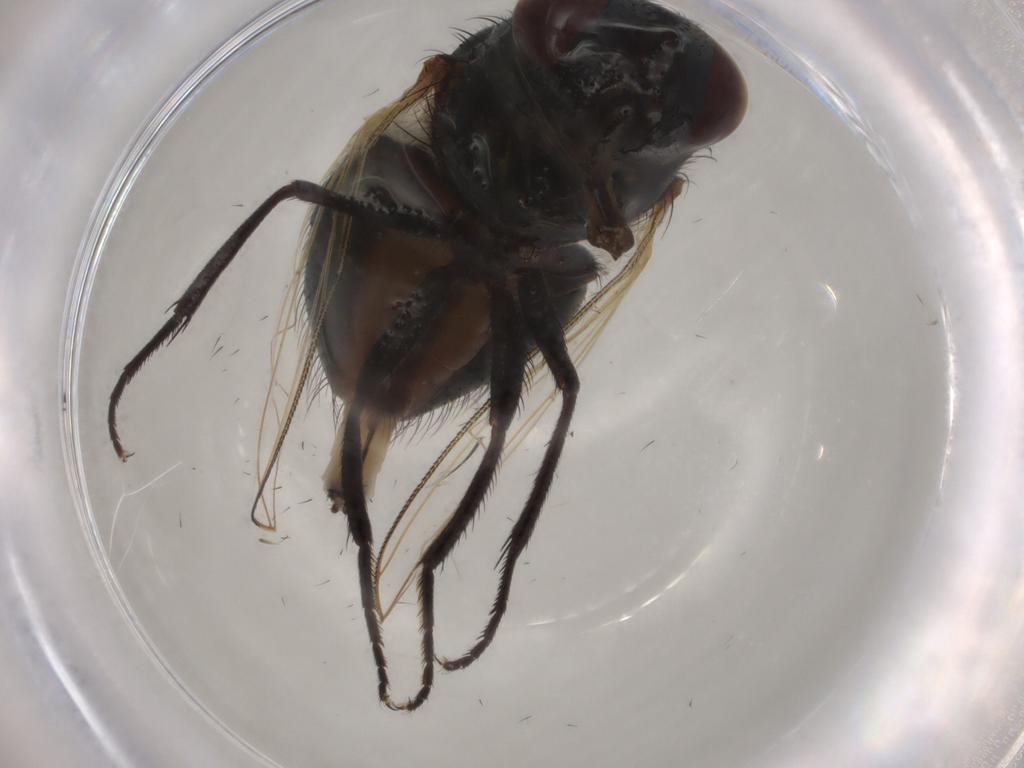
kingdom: Animalia
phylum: Arthropoda
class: Insecta
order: Diptera
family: Muscidae
